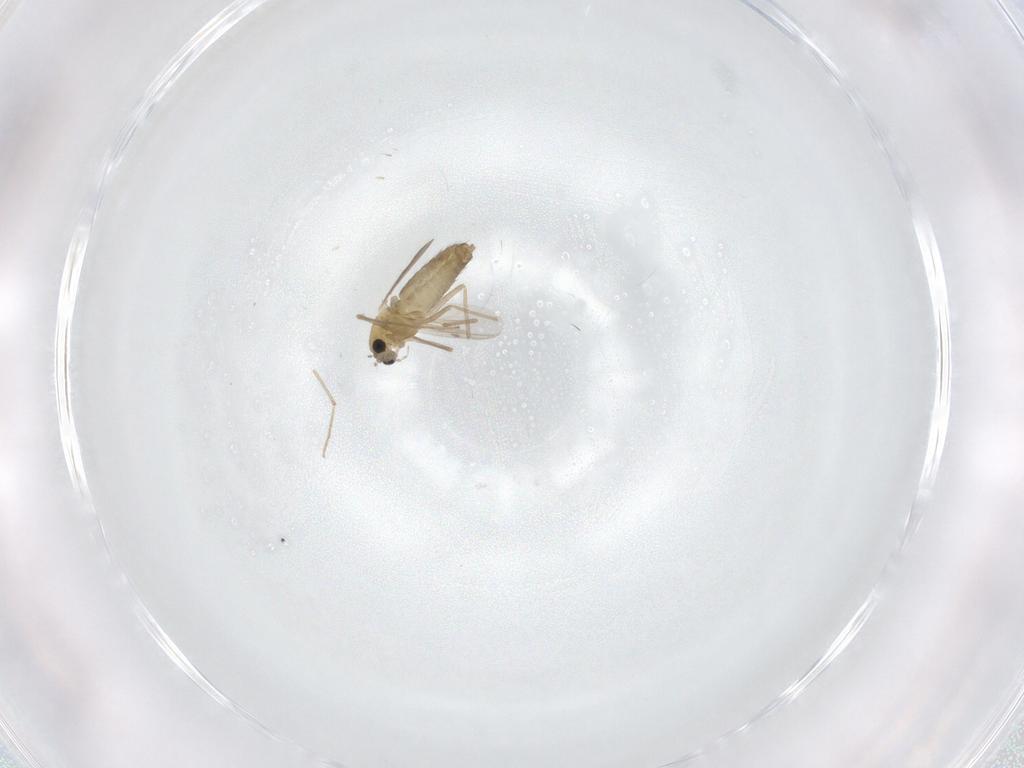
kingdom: Animalia
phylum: Arthropoda
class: Insecta
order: Diptera
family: Chironomidae
